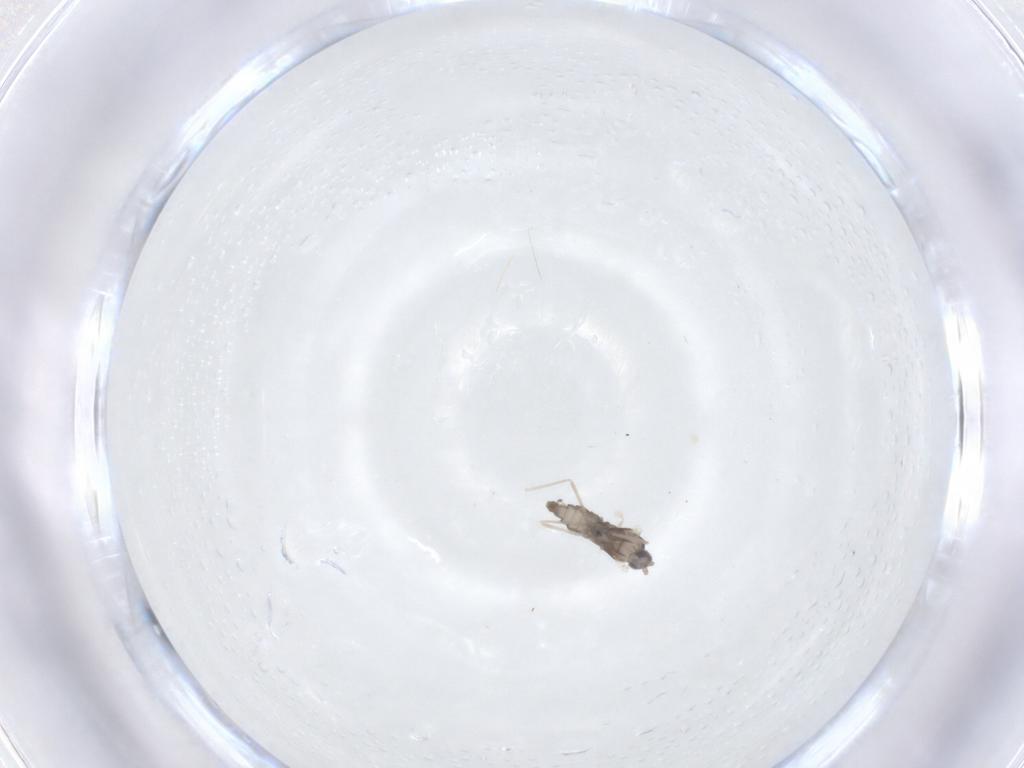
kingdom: Animalia
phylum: Arthropoda
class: Insecta
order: Diptera
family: Cecidomyiidae
